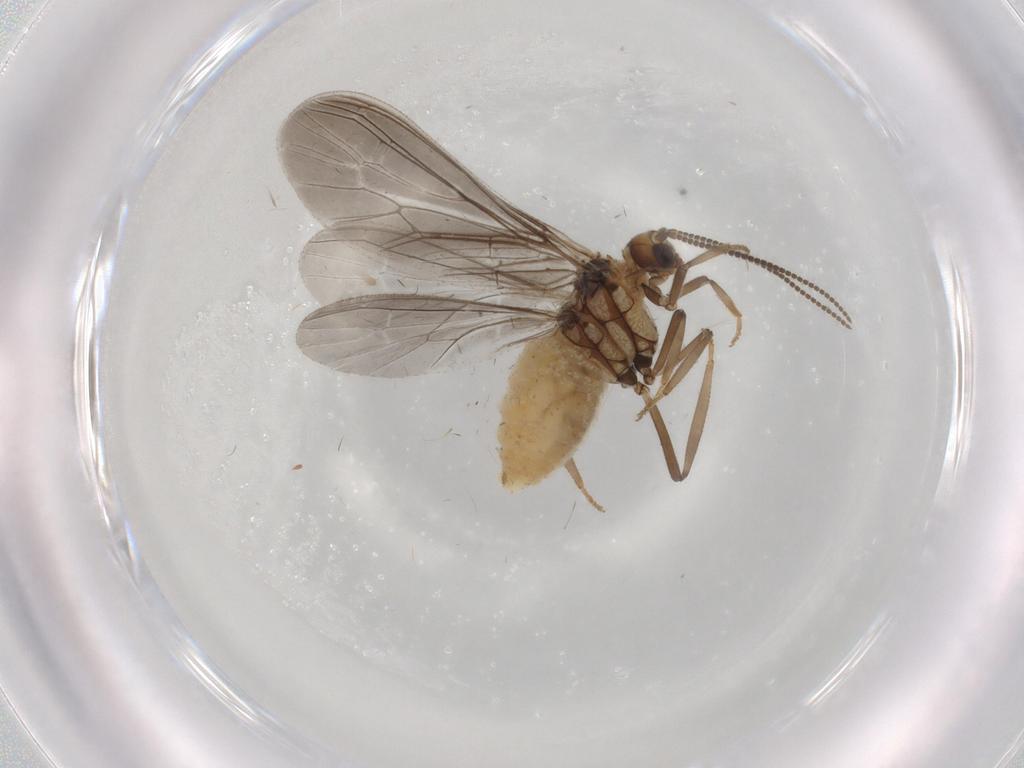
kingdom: Animalia
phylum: Arthropoda
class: Insecta
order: Neuroptera
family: Coniopterygidae
